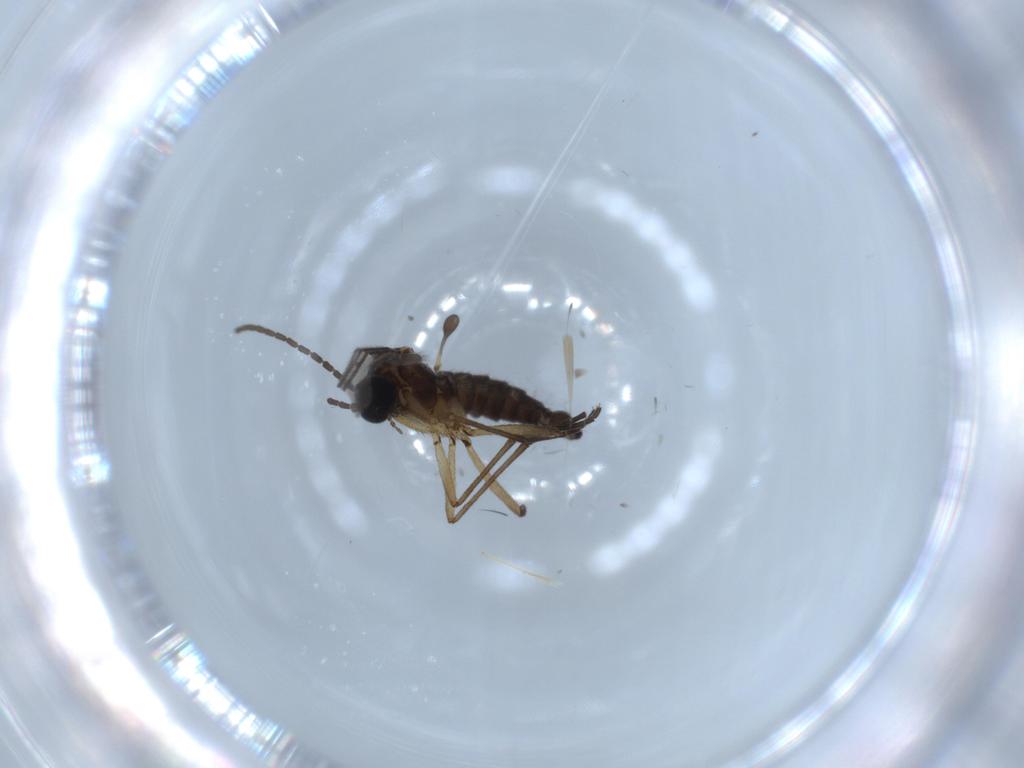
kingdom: Animalia
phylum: Arthropoda
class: Insecta
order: Diptera
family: Sciaridae
